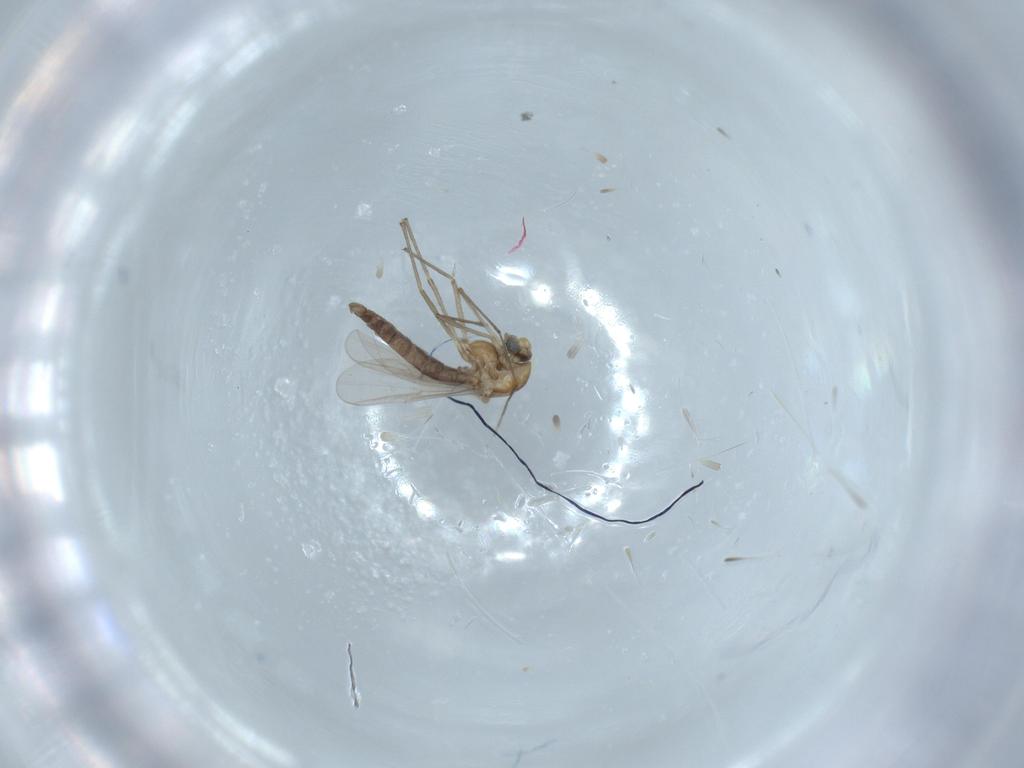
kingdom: Animalia
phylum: Arthropoda
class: Insecta
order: Diptera
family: Chironomidae
